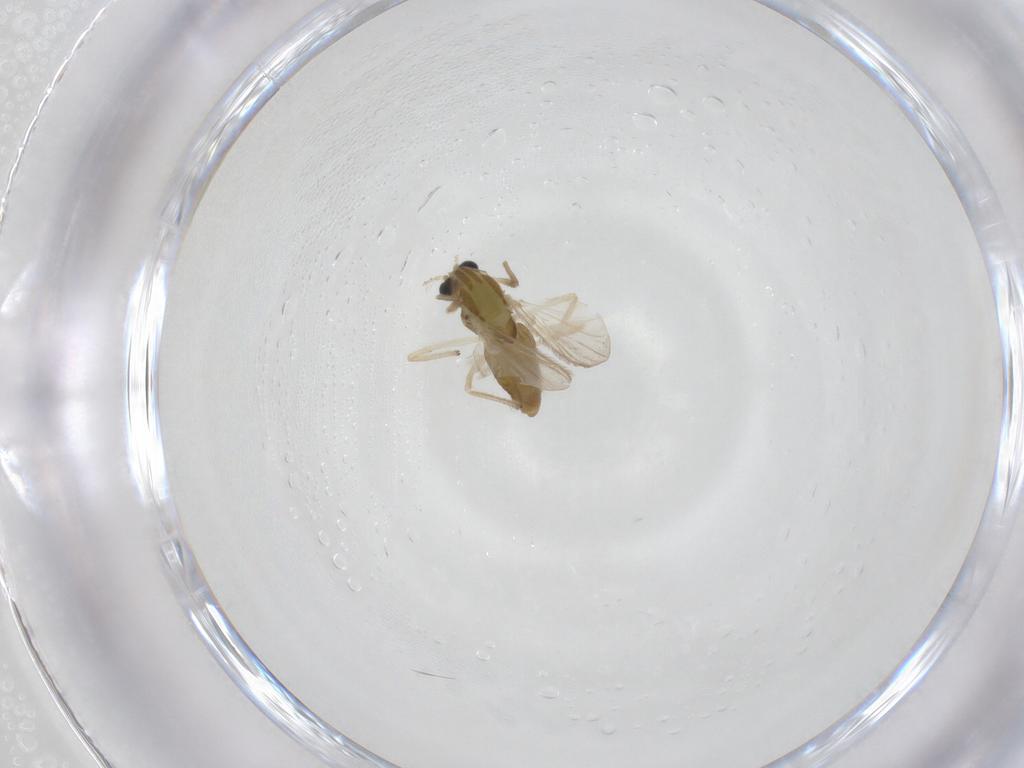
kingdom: Animalia
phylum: Arthropoda
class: Insecta
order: Diptera
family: Chironomidae
